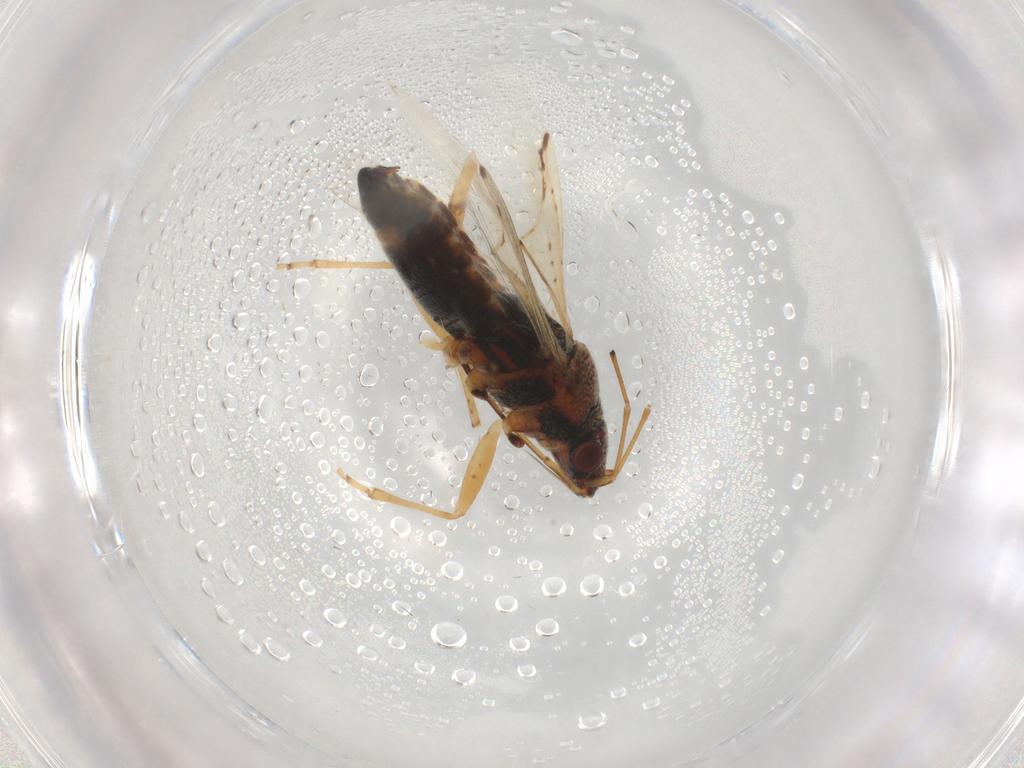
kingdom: Animalia
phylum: Arthropoda
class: Insecta
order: Hemiptera
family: Lygaeidae
